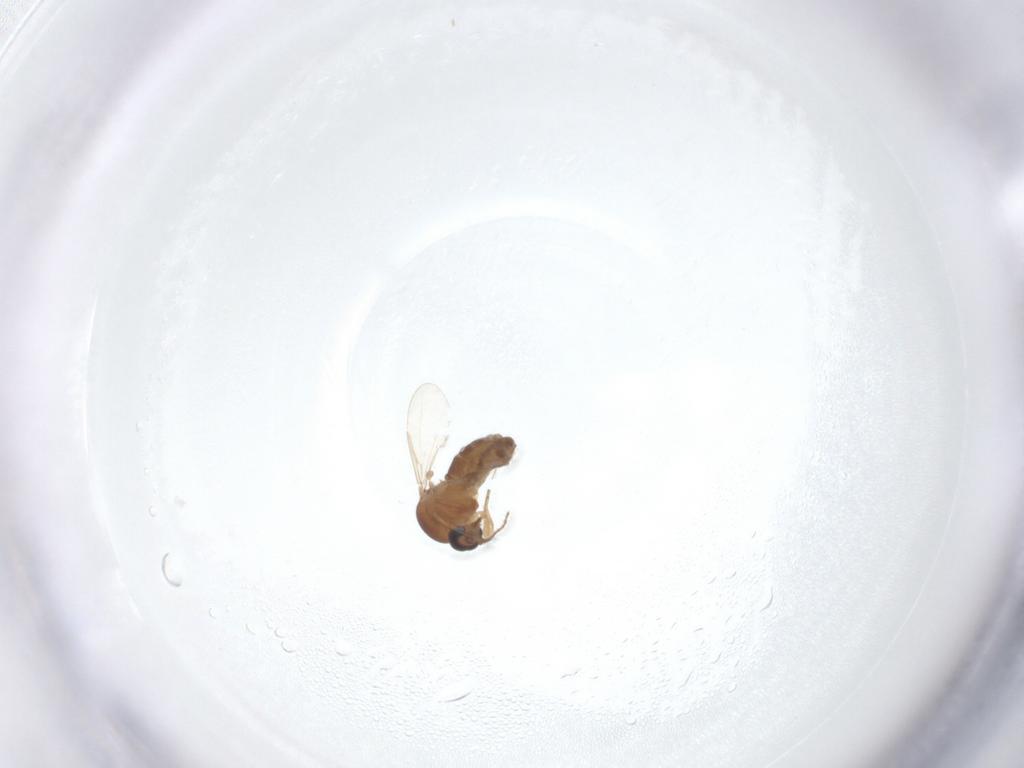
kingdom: Animalia
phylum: Arthropoda
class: Insecta
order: Diptera
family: Ceratopogonidae
